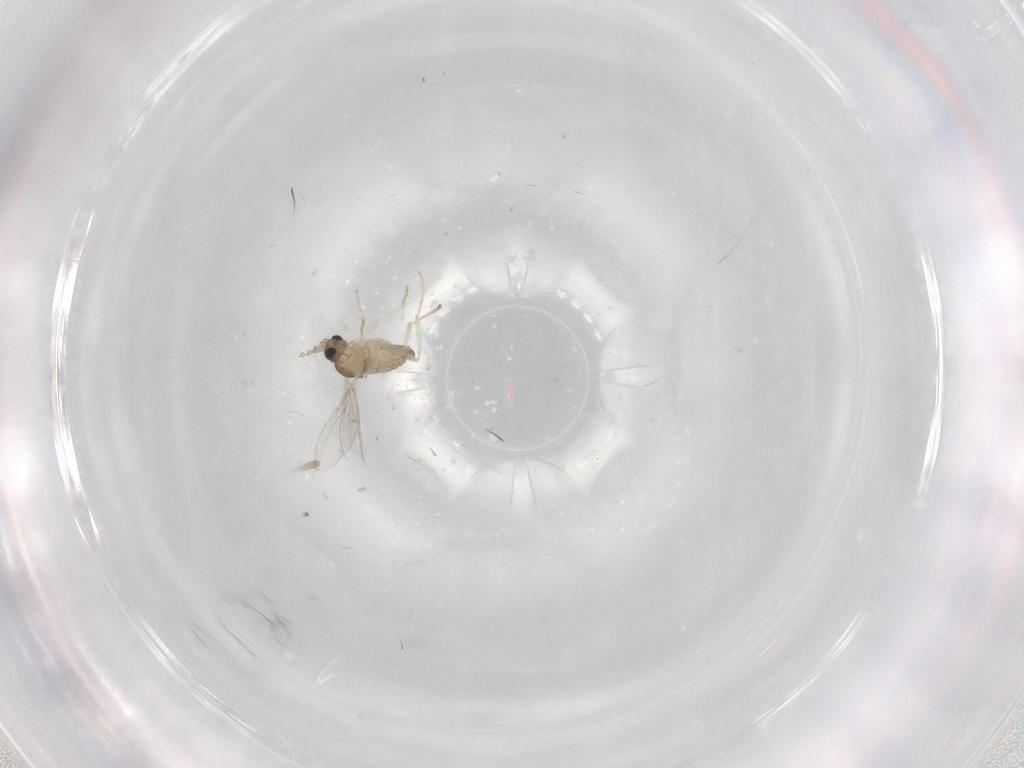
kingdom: Animalia
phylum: Arthropoda
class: Insecta
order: Diptera
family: Cecidomyiidae
